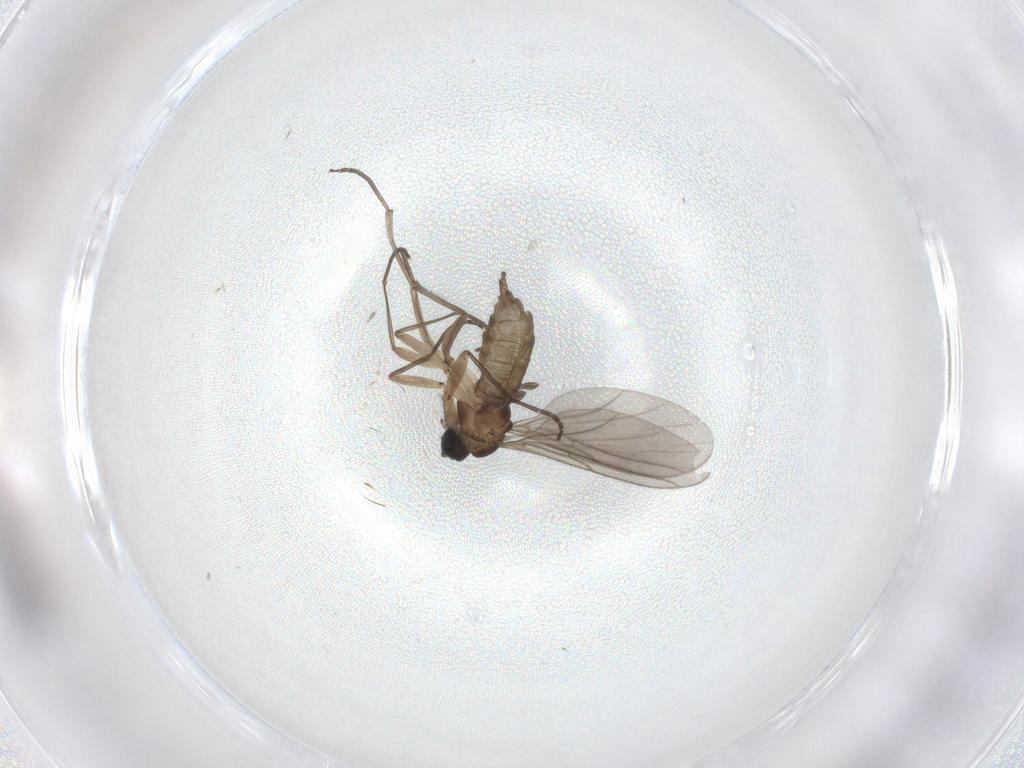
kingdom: Animalia
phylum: Arthropoda
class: Insecta
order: Diptera
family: Sciaridae
